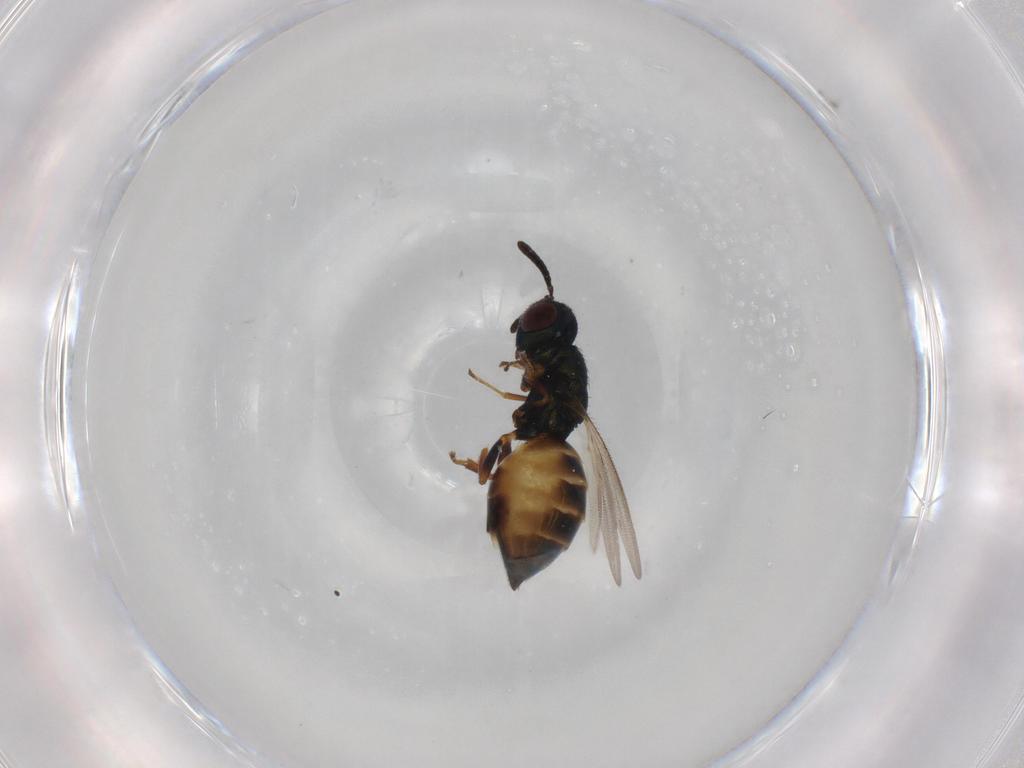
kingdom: Animalia
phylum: Arthropoda
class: Insecta
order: Hymenoptera
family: Pteromalidae
